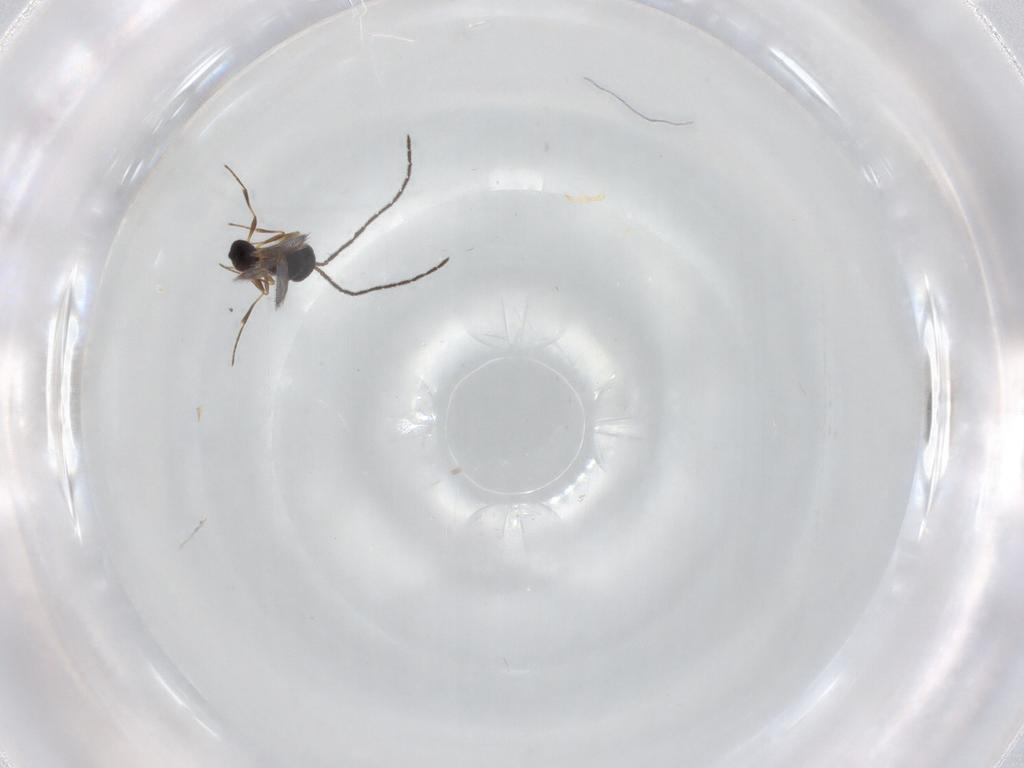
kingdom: Animalia
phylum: Arthropoda
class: Insecta
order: Hymenoptera
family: Scelionidae
